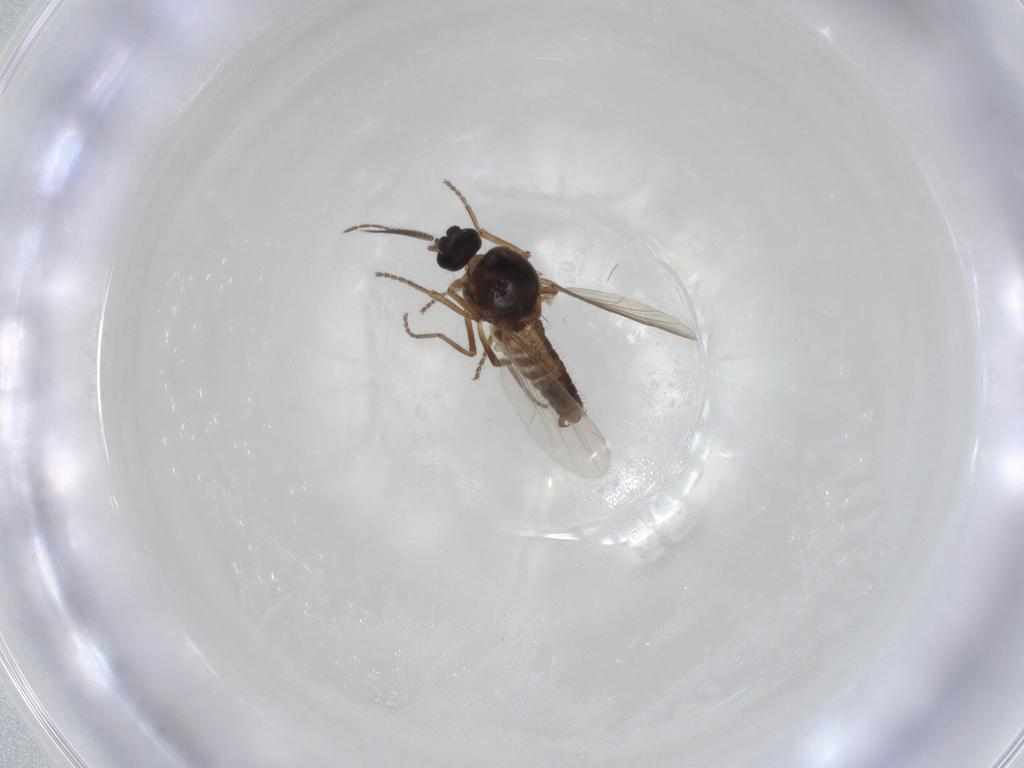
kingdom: Animalia
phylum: Arthropoda
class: Insecta
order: Diptera
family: Ceratopogonidae
